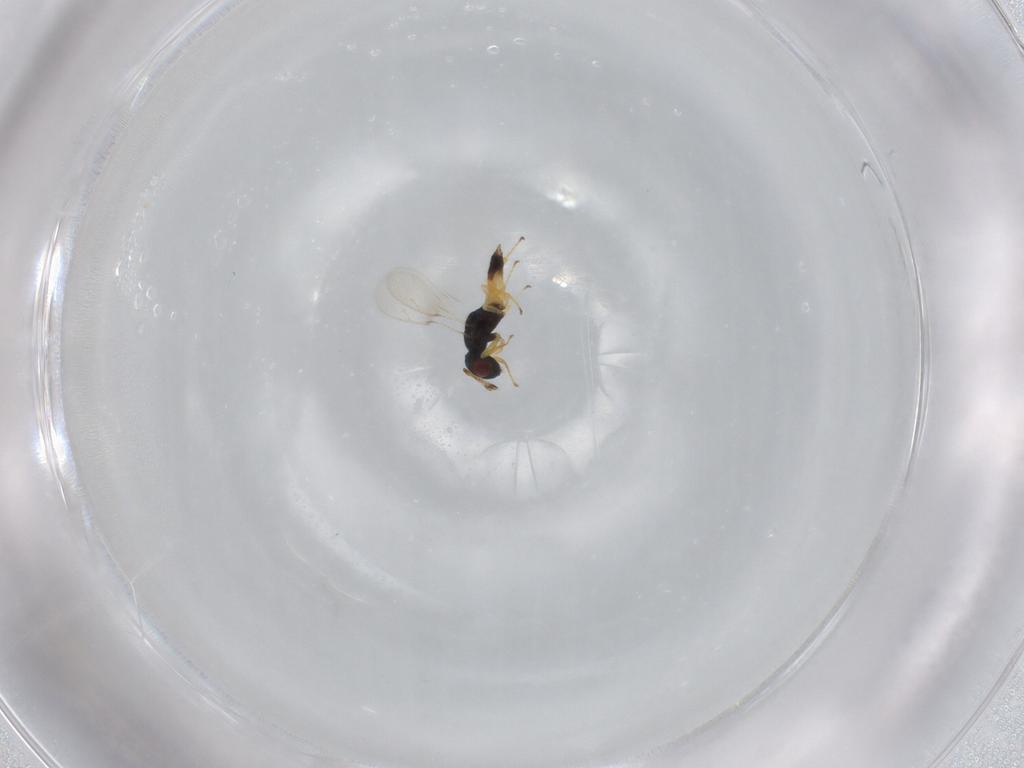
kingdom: Animalia
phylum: Arthropoda
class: Insecta
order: Hymenoptera
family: Pteromalidae
